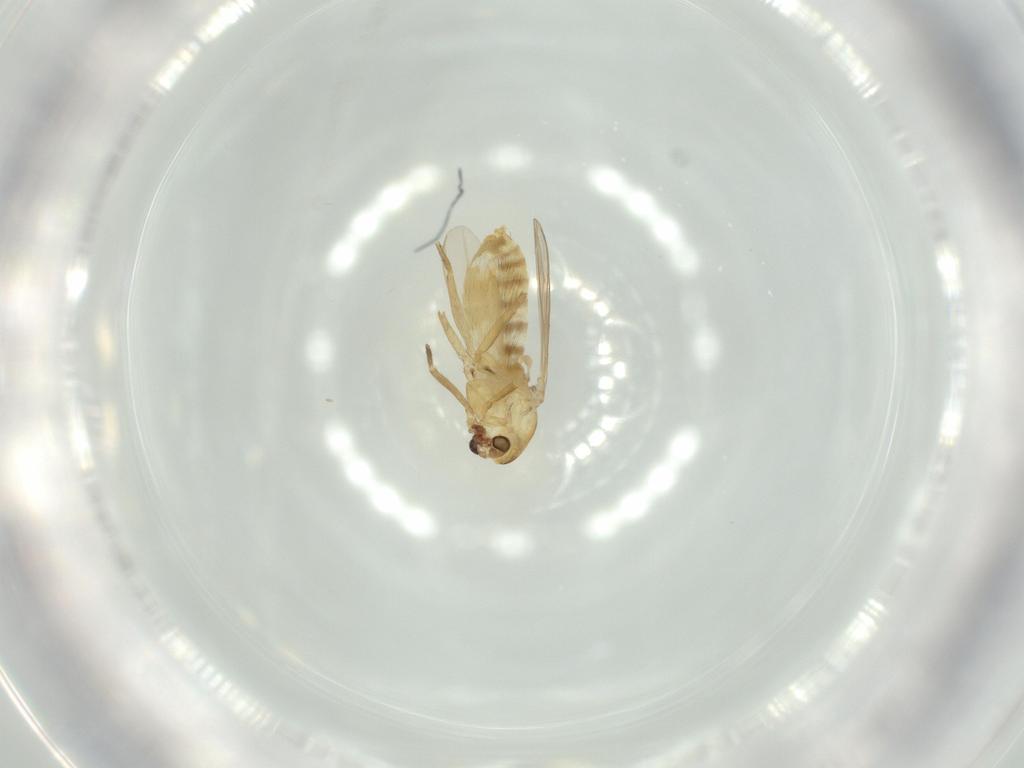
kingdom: Animalia
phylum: Arthropoda
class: Insecta
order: Diptera
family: Chironomidae
